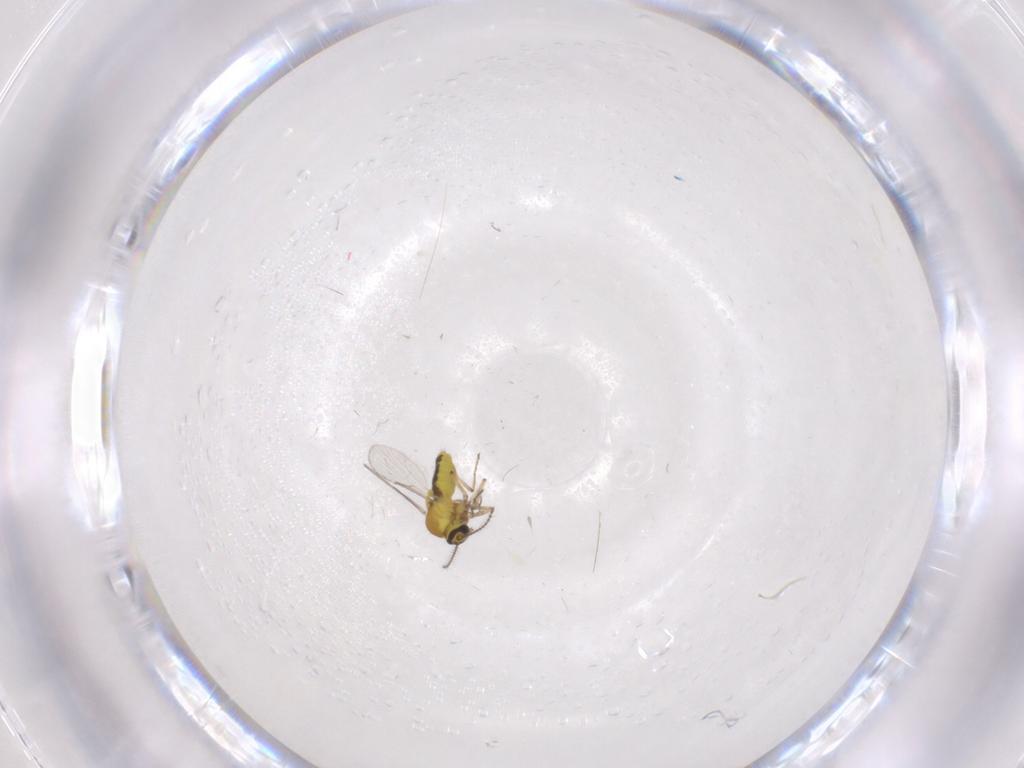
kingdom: Animalia
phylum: Arthropoda
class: Insecta
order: Diptera
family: Ceratopogonidae
